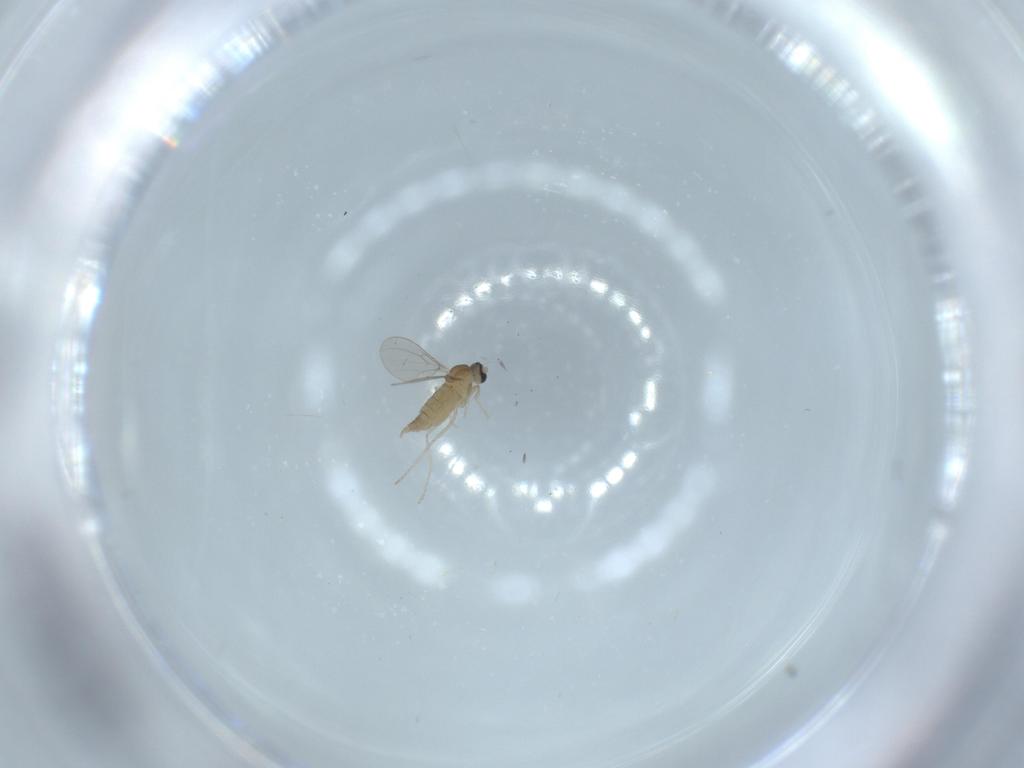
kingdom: Animalia
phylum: Arthropoda
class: Insecta
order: Diptera
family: Cecidomyiidae
